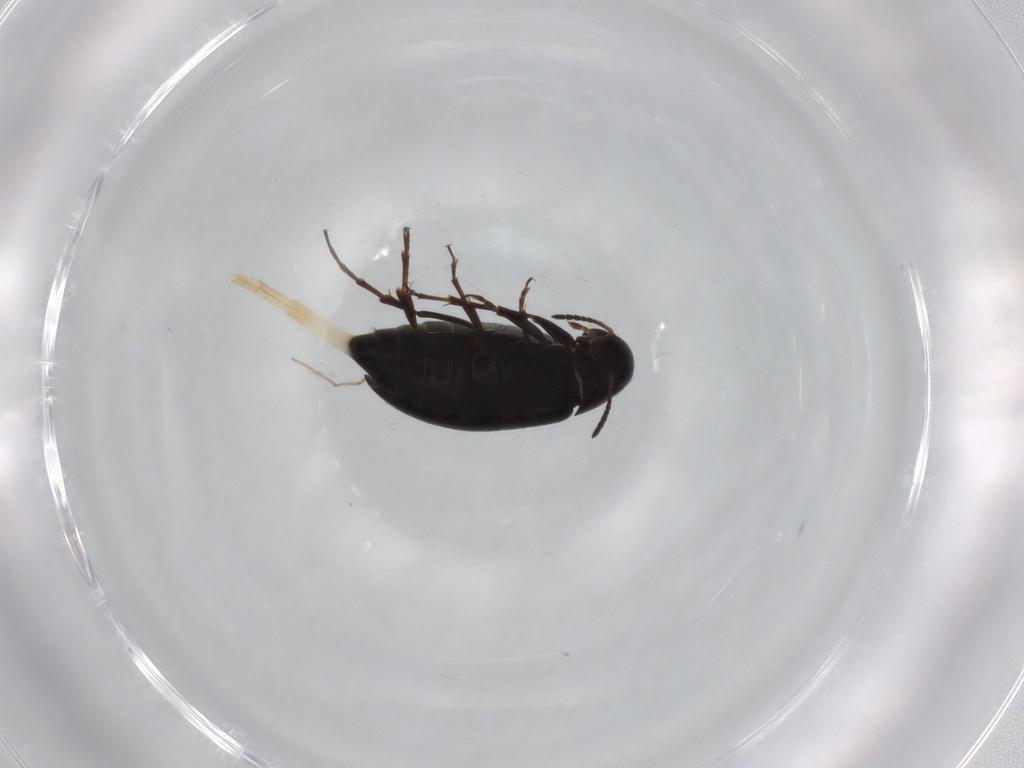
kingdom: Animalia
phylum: Arthropoda
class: Insecta
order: Coleoptera
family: Scraptiidae
